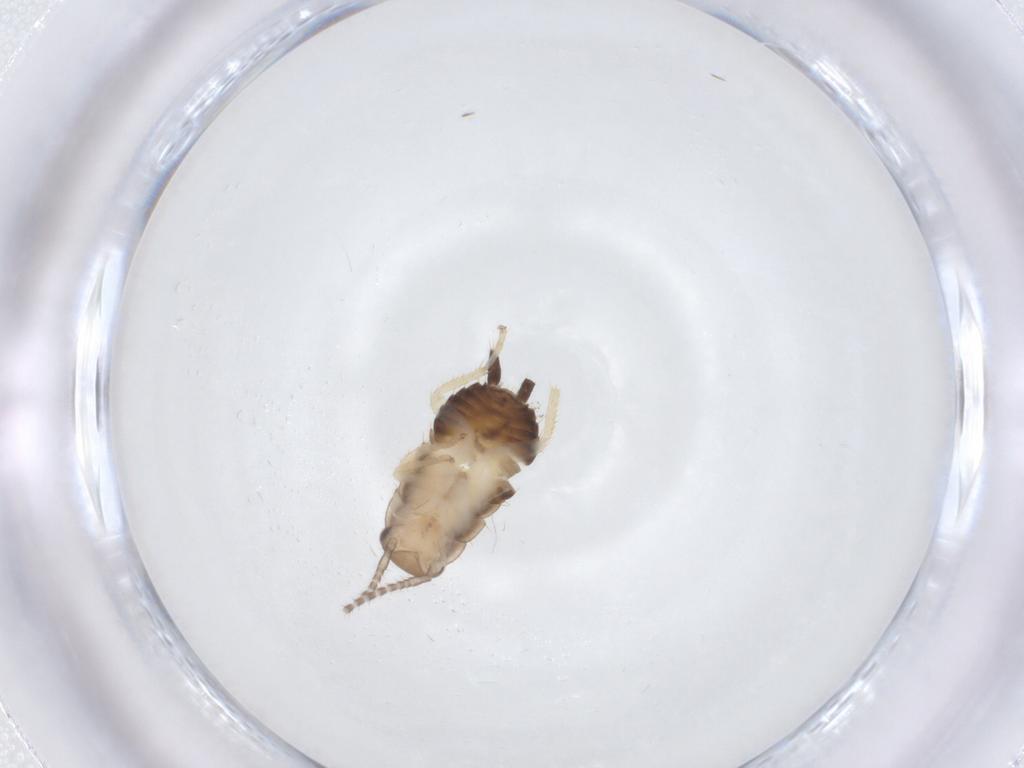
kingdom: Animalia
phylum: Arthropoda
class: Insecta
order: Blattodea
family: Ectobiidae
